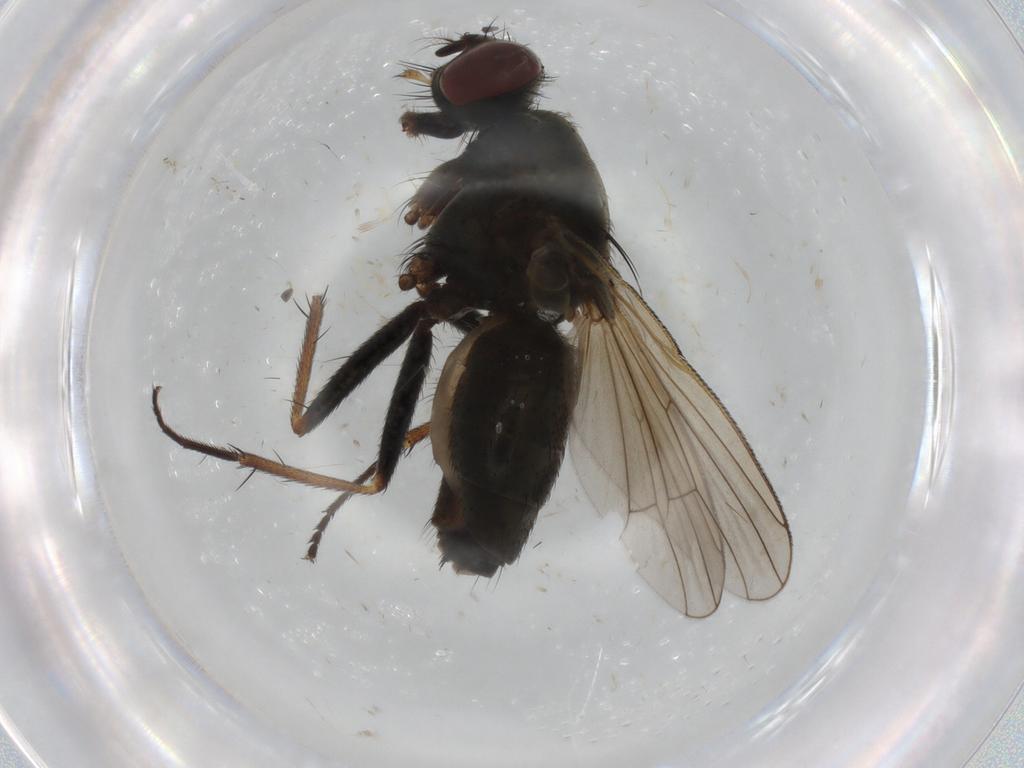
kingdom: Animalia
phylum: Arthropoda
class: Insecta
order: Diptera
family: Muscidae
